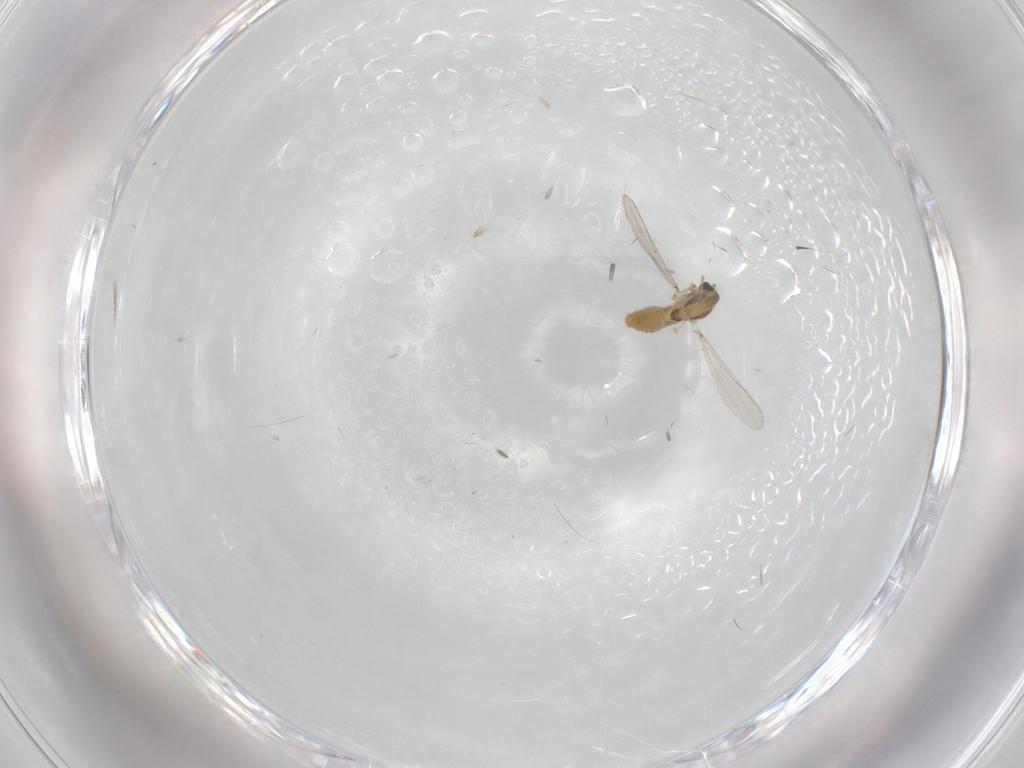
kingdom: Animalia
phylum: Arthropoda
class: Insecta
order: Diptera
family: Chironomidae
